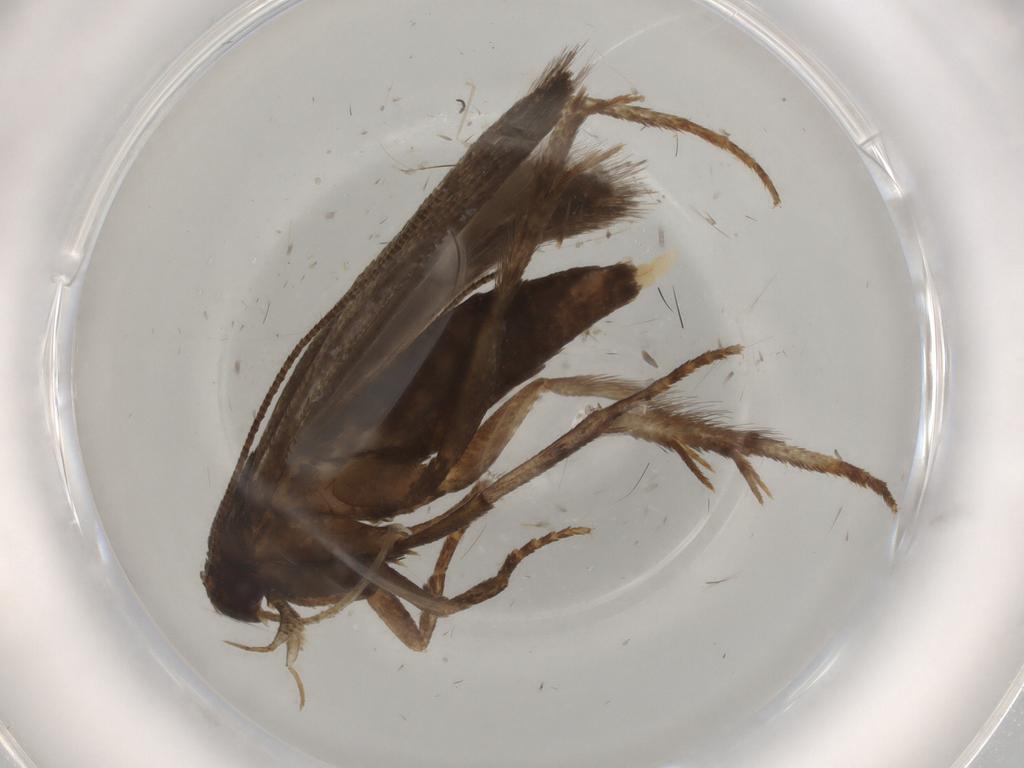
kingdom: Animalia
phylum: Arthropoda
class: Insecta
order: Lepidoptera
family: Gelechiidae
